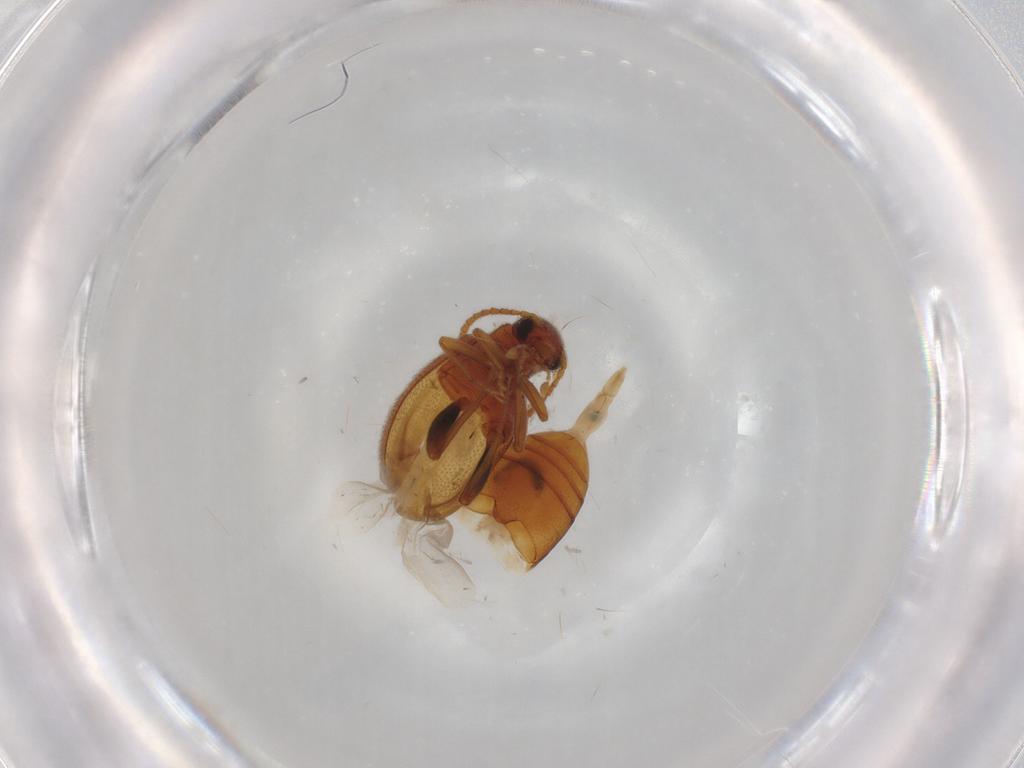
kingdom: Animalia
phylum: Arthropoda
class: Insecta
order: Coleoptera
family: Aderidae
